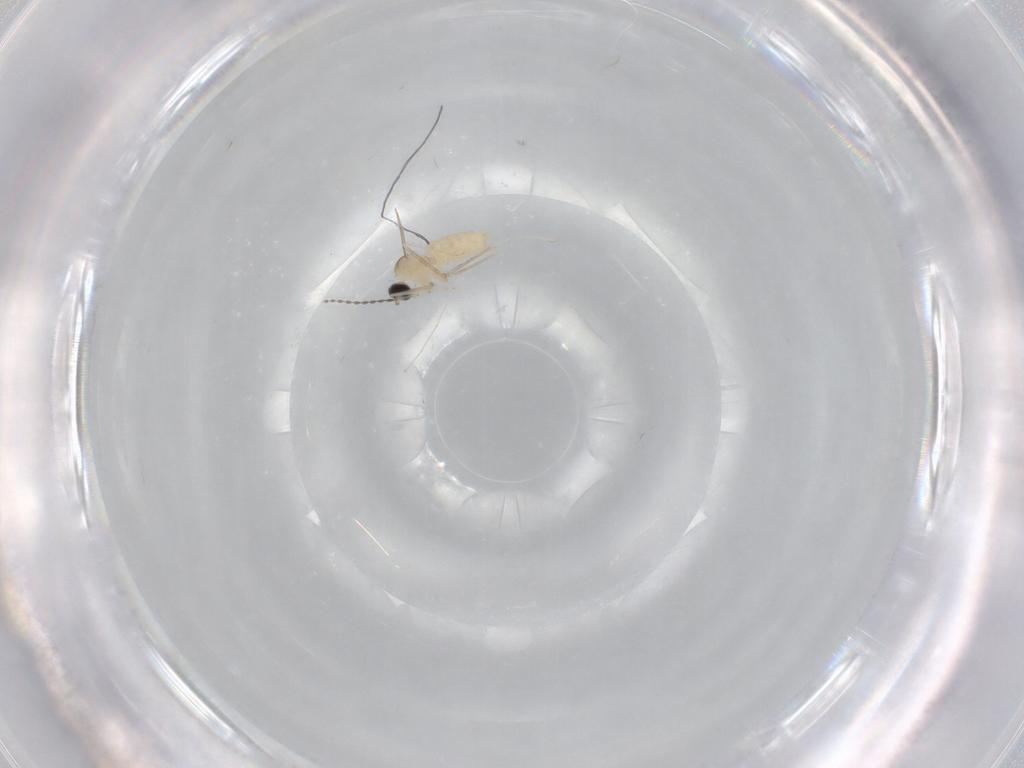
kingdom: Animalia
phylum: Arthropoda
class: Insecta
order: Diptera
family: Cecidomyiidae
